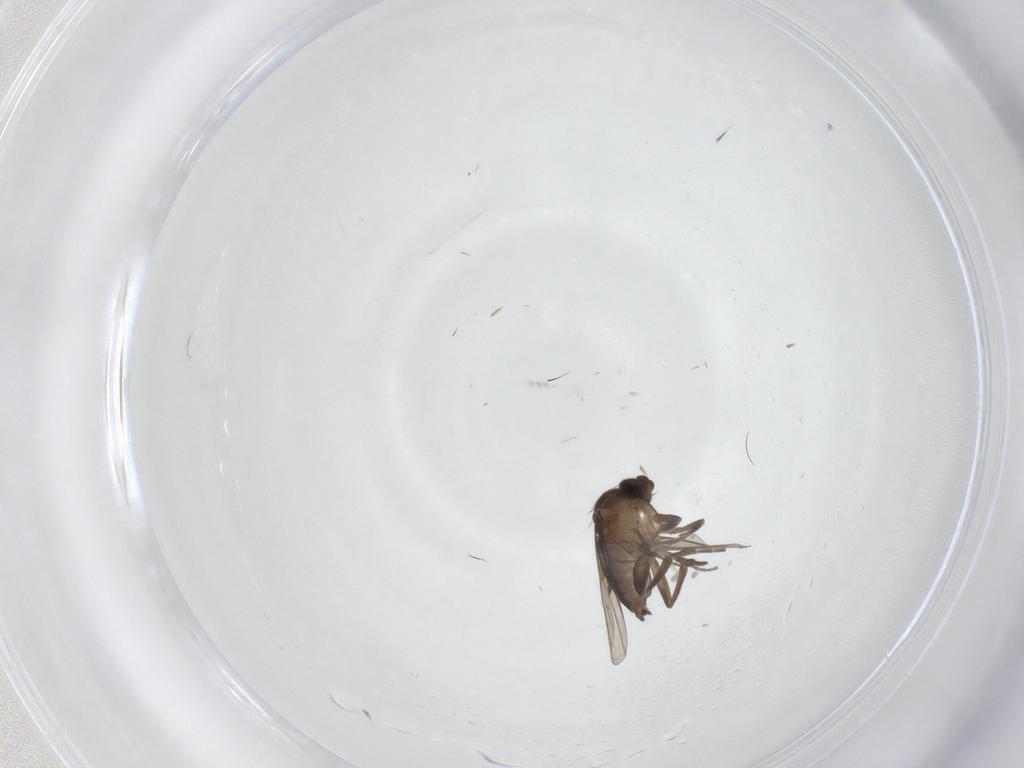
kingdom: Animalia
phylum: Arthropoda
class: Insecta
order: Diptera
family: Phoridae
